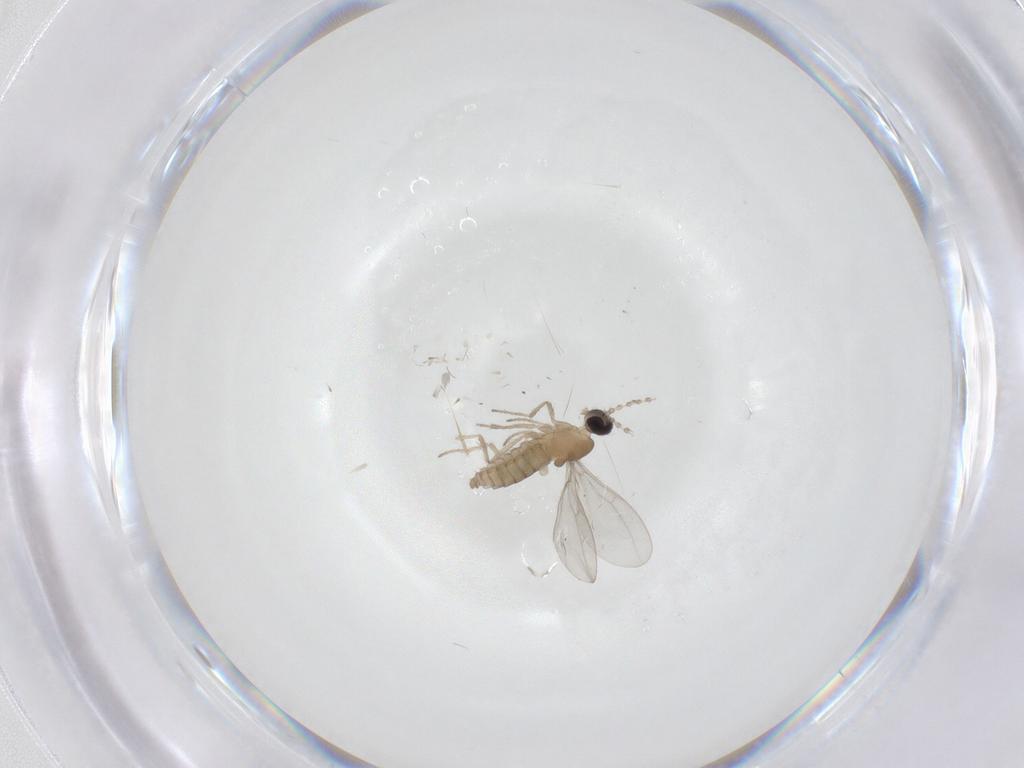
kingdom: Animalia
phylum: Arthropoda
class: Insecta
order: Diptera
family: Cecidomyiidae
